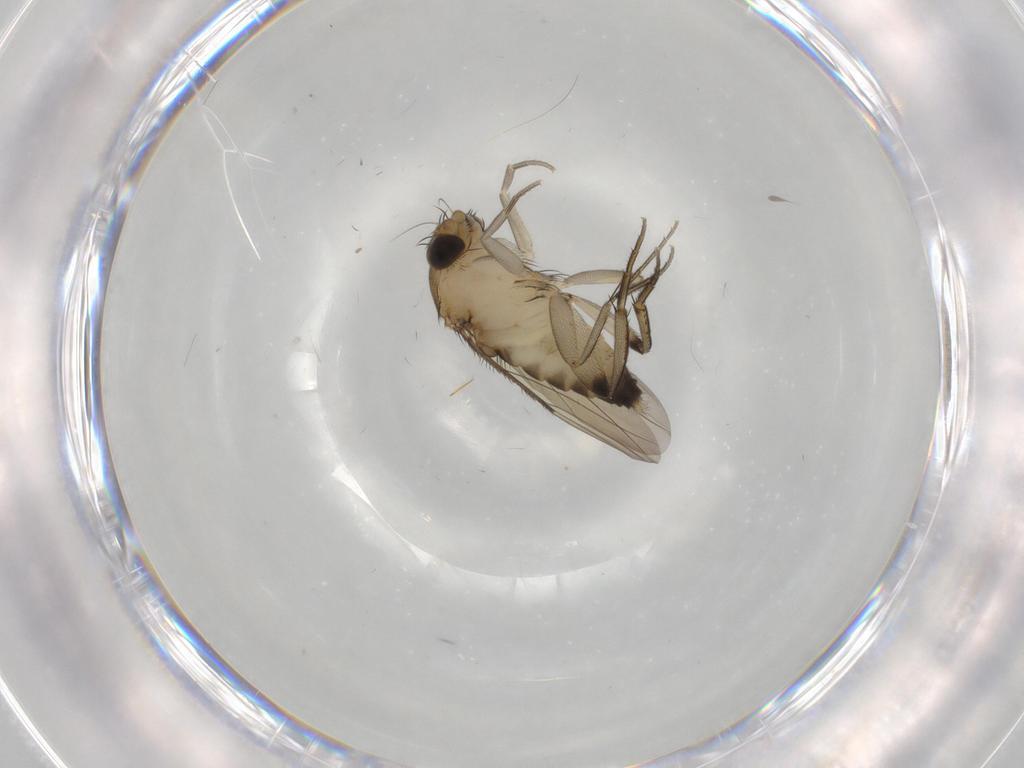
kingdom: Animalia
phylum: Arthropoda
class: Insecta
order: Diptera
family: Phoridae
